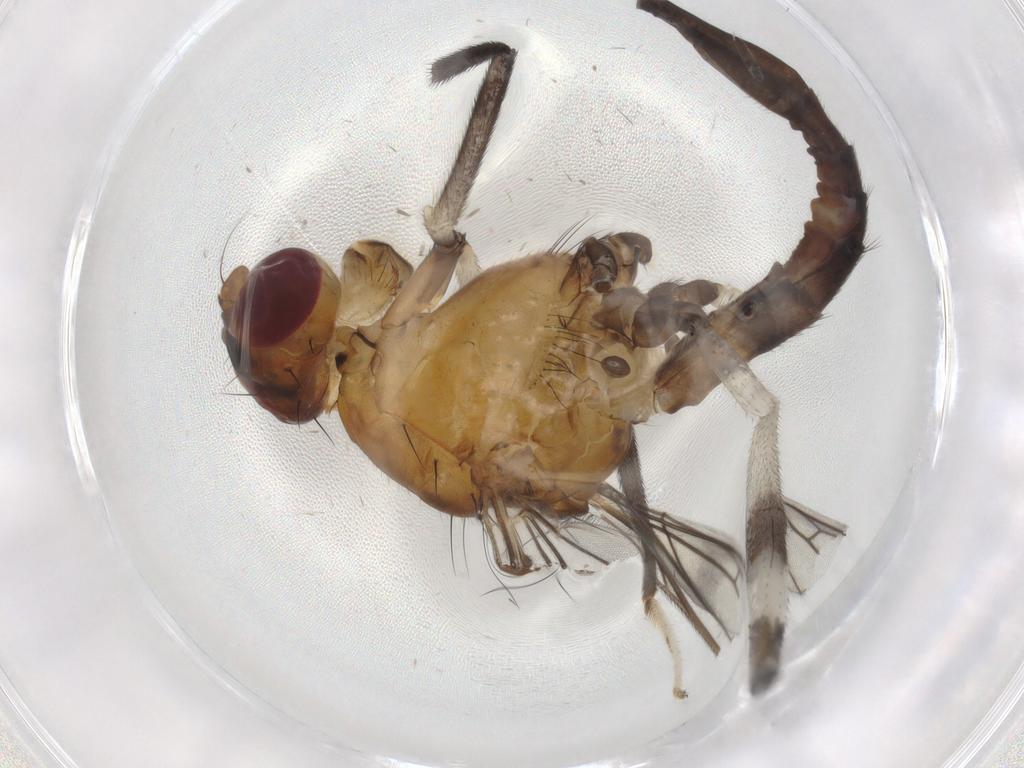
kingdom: Animalia
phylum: Arthropoda
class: Insecta
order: Diptera
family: Micropezidae
